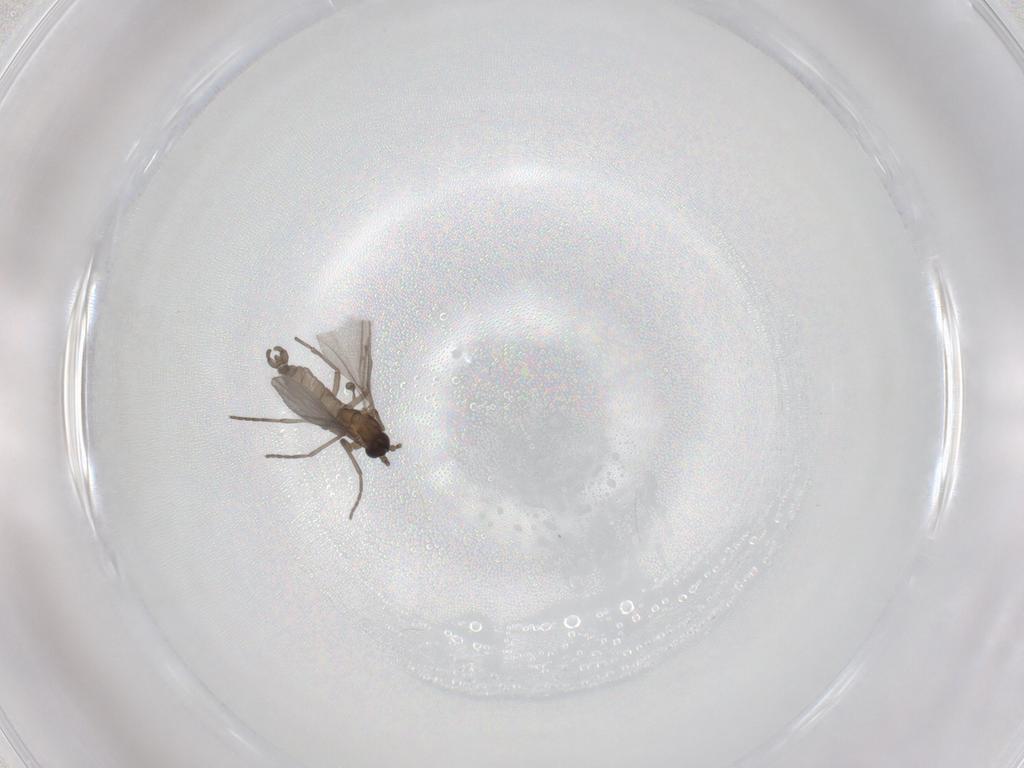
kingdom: Animalia
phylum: Arthropoda
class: Insecta
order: Diptera
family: Sciaridae
